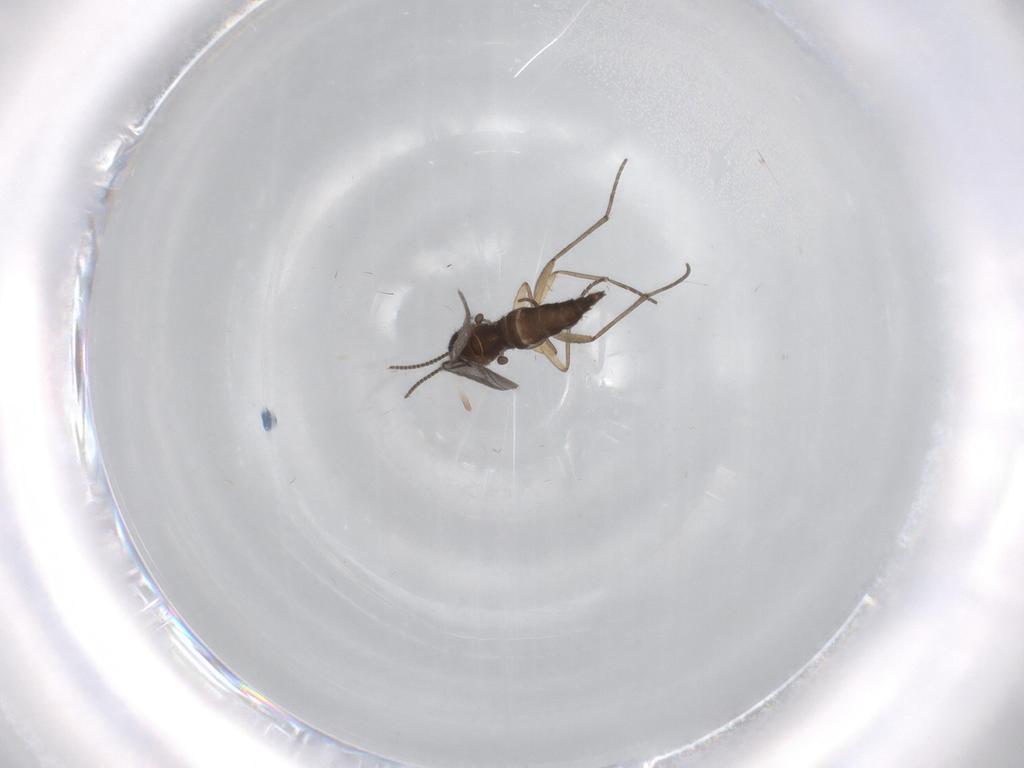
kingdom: Animalia
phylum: Arthropoda
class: Insecta
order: Diptera
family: Sciaridae
